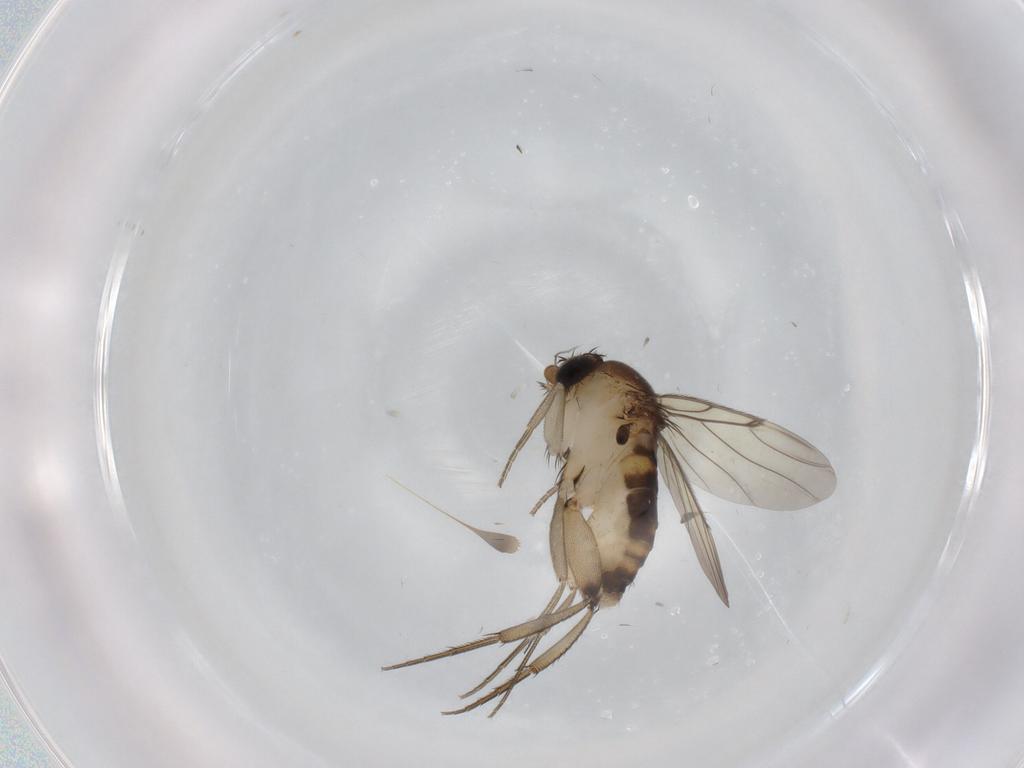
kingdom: Animalia
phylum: Arthropoda
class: Insecta
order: Diptera
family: Phoridae
